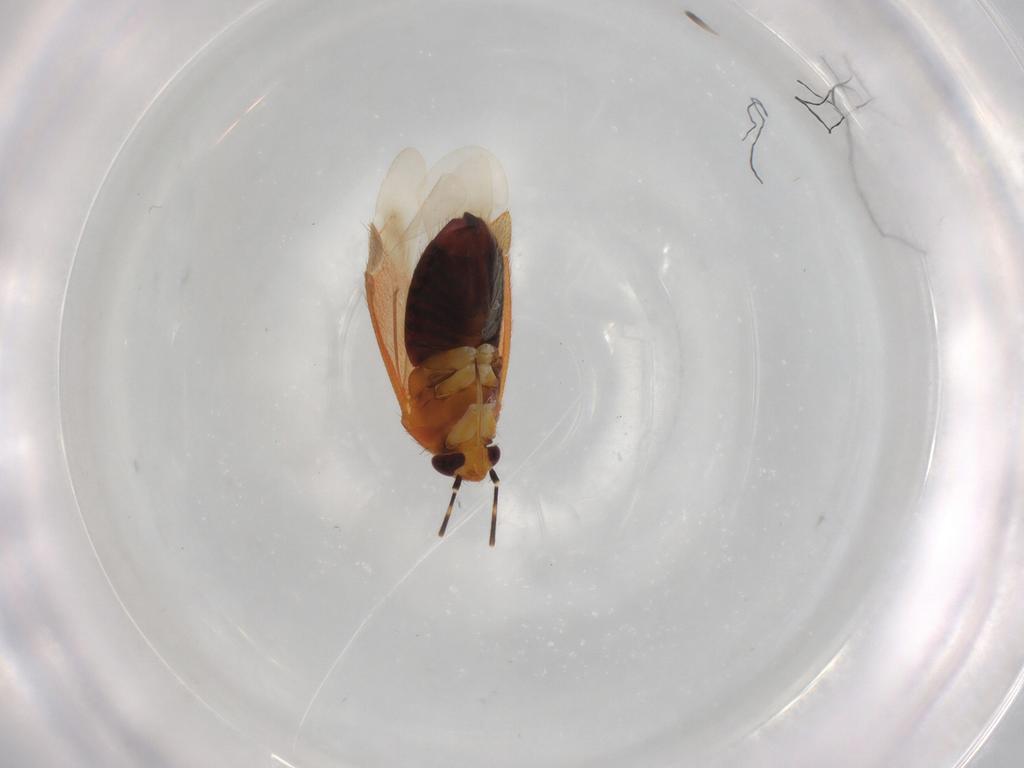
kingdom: Animalia
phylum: Arthropoda
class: Insecta
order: Hemiptera
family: Miridae
